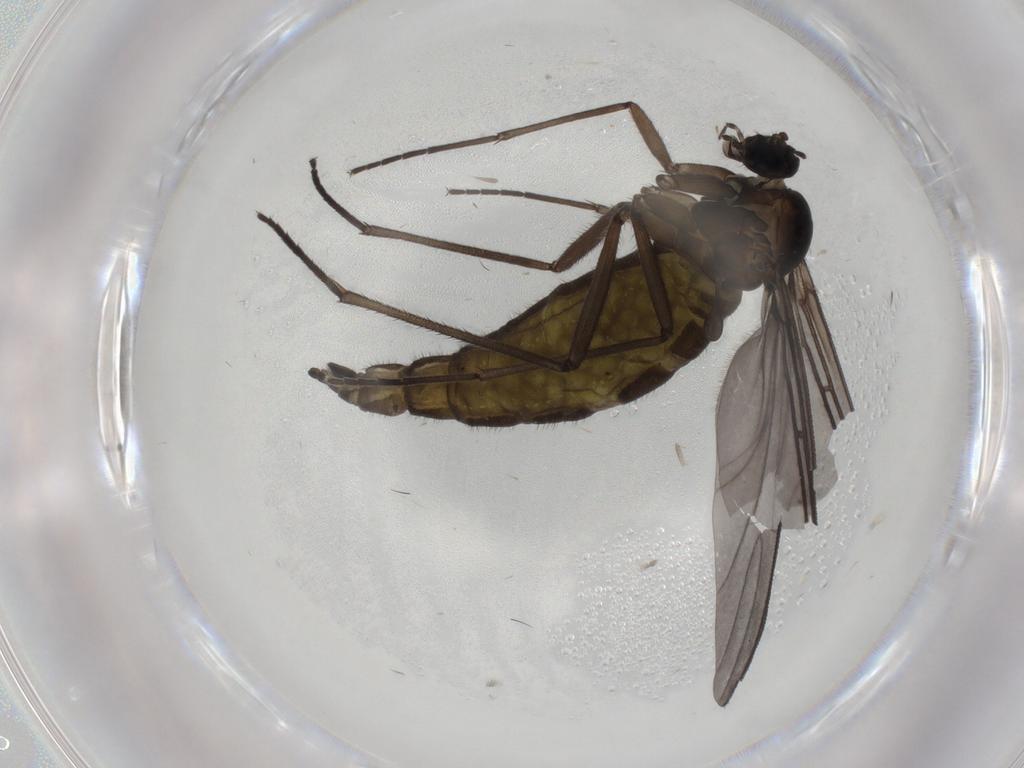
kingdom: Animalia
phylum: Arthropoda
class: Insecta
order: Diptera
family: Sciaridae
